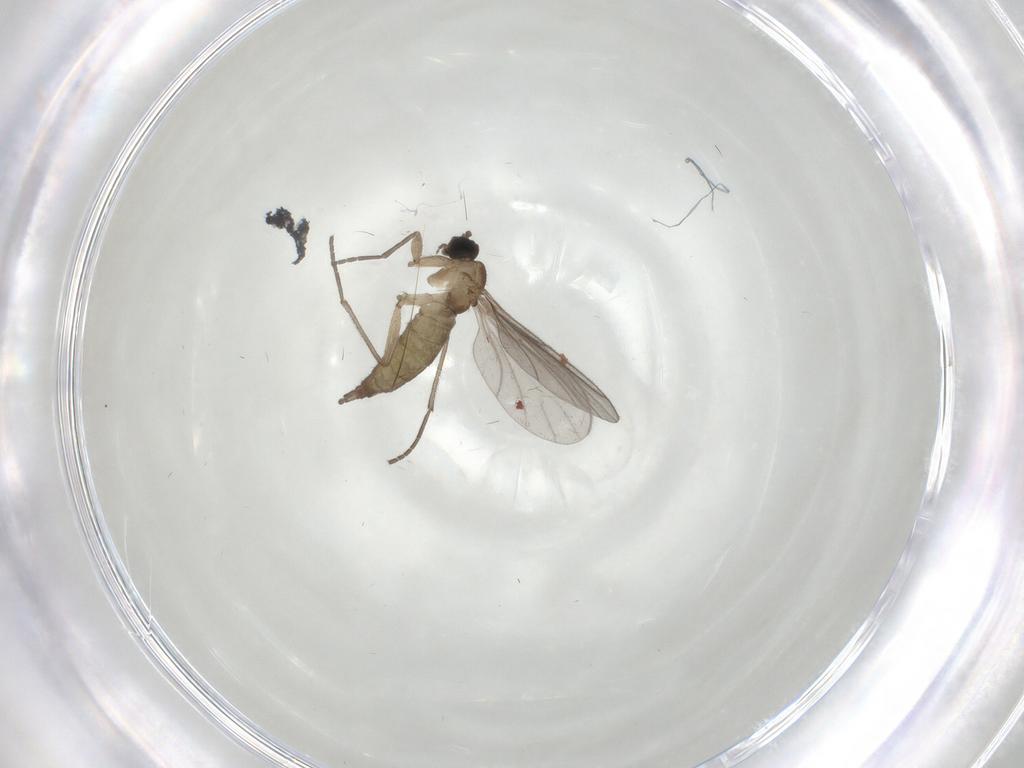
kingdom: Animalia
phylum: Arthropoda
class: Insecta
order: Diptera
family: Sciaridae
